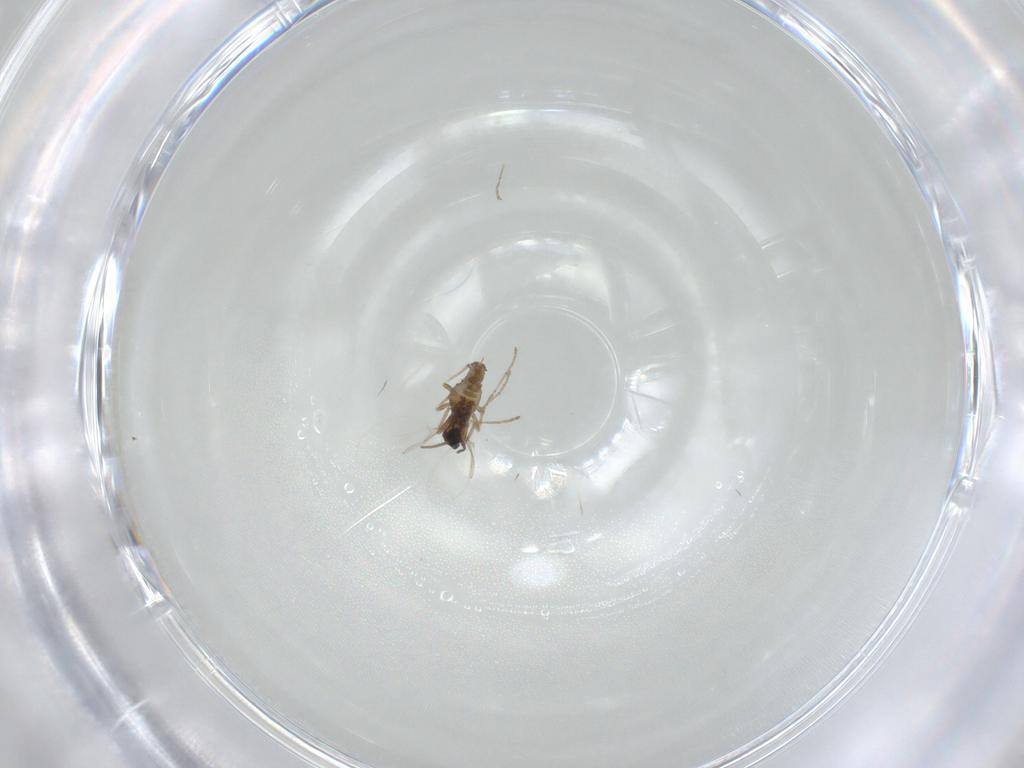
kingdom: Animalia
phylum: Arthropoda
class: Insecta
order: Diptera
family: Cecidomyiidae
